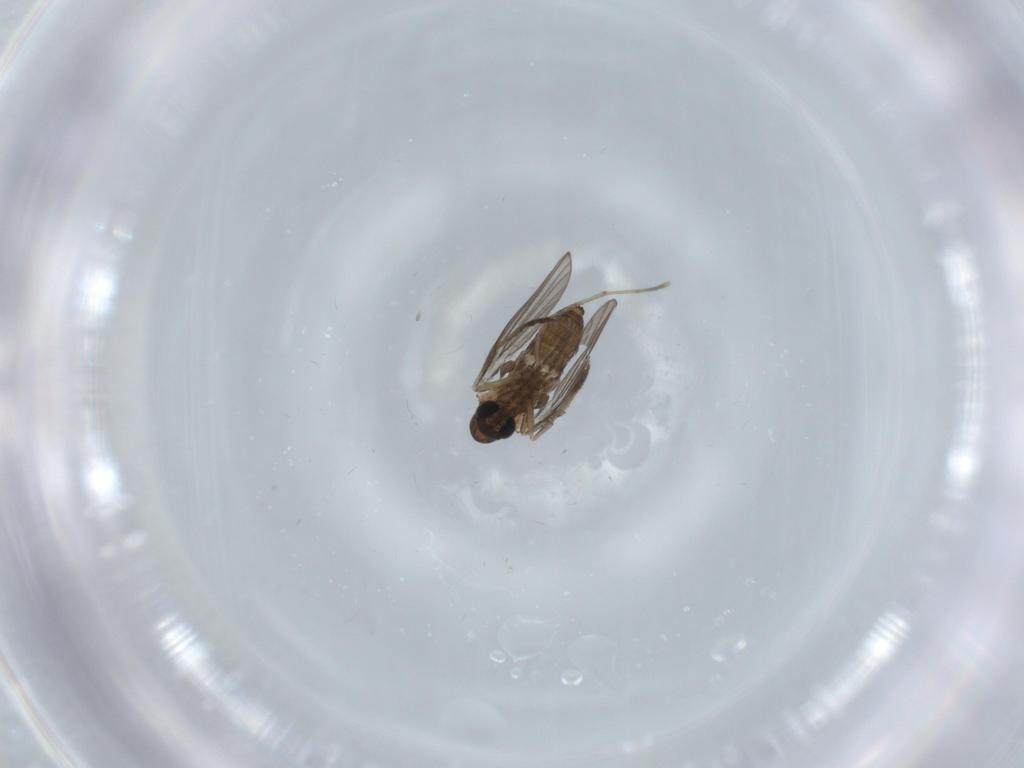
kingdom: Animalia
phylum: Arthropoda
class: Insecta
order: Diptera
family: Psychodidae
